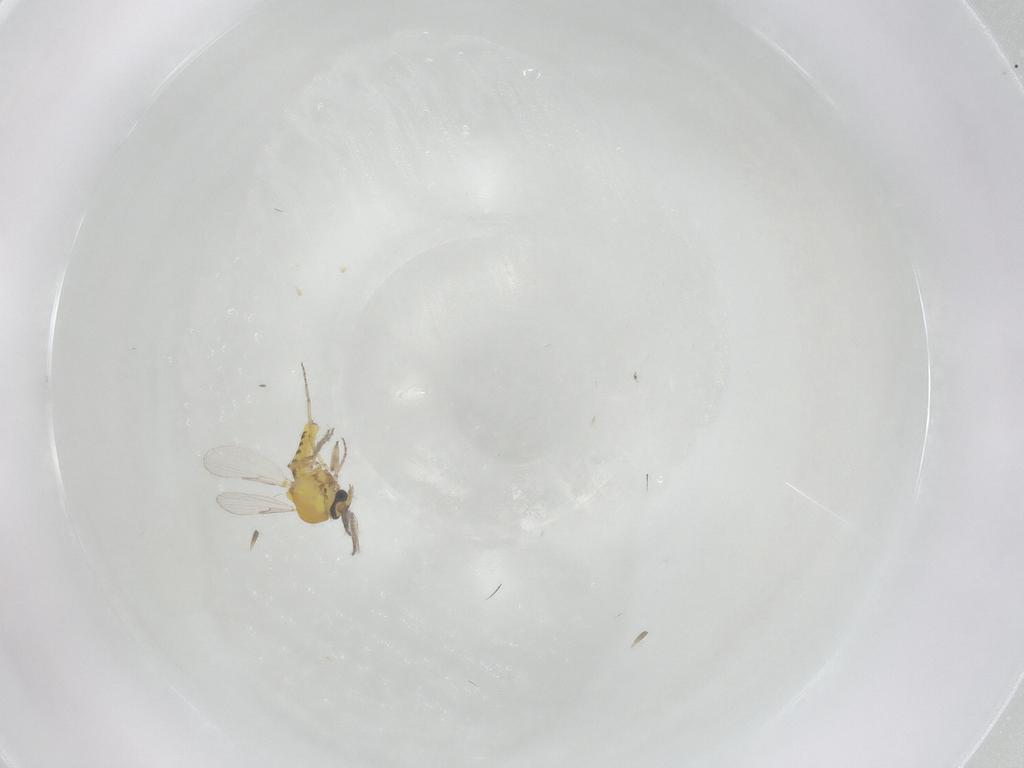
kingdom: Animalia
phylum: Arthropoda
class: Insecta
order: Diptera
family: Ceratopogonidae
